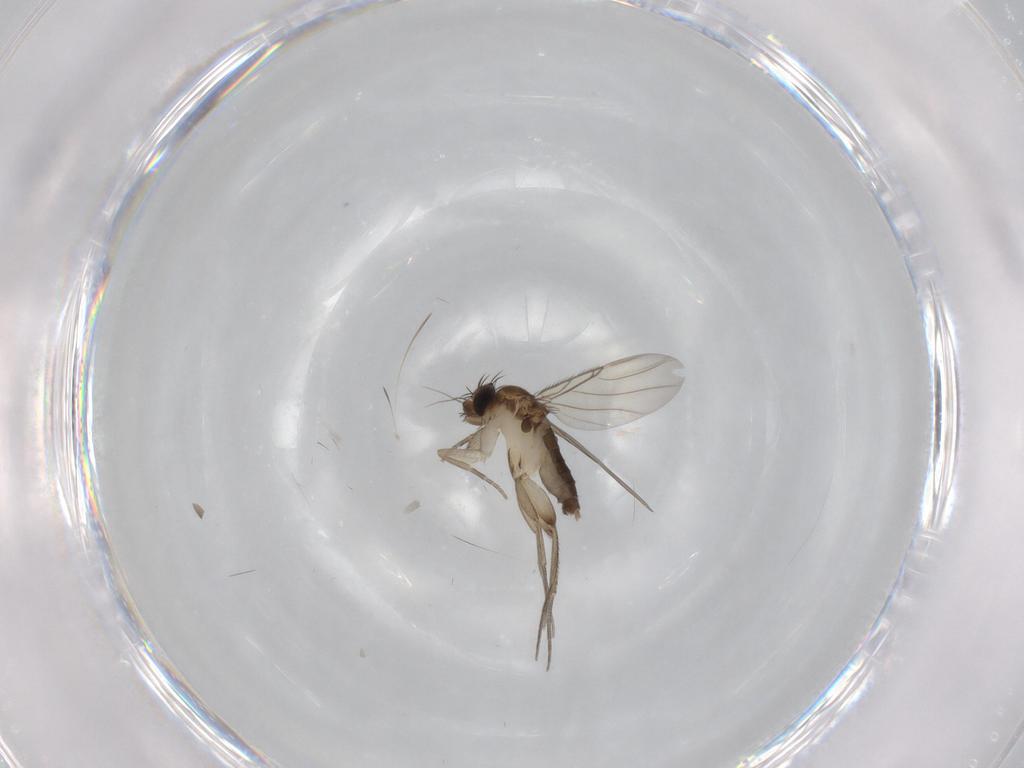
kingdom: Animalia
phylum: Arthropoda
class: Insecta
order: Diptera
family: Phoridae
